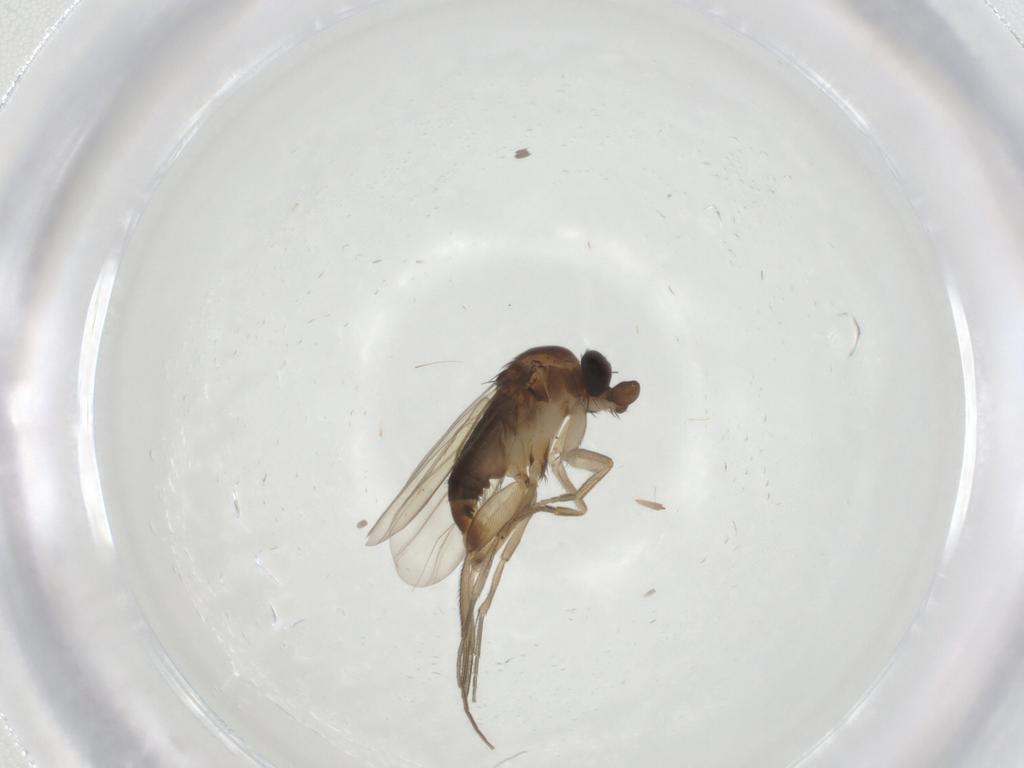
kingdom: Animalia
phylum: Arthropoda
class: Insecta
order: Diptera
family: Phoridae
